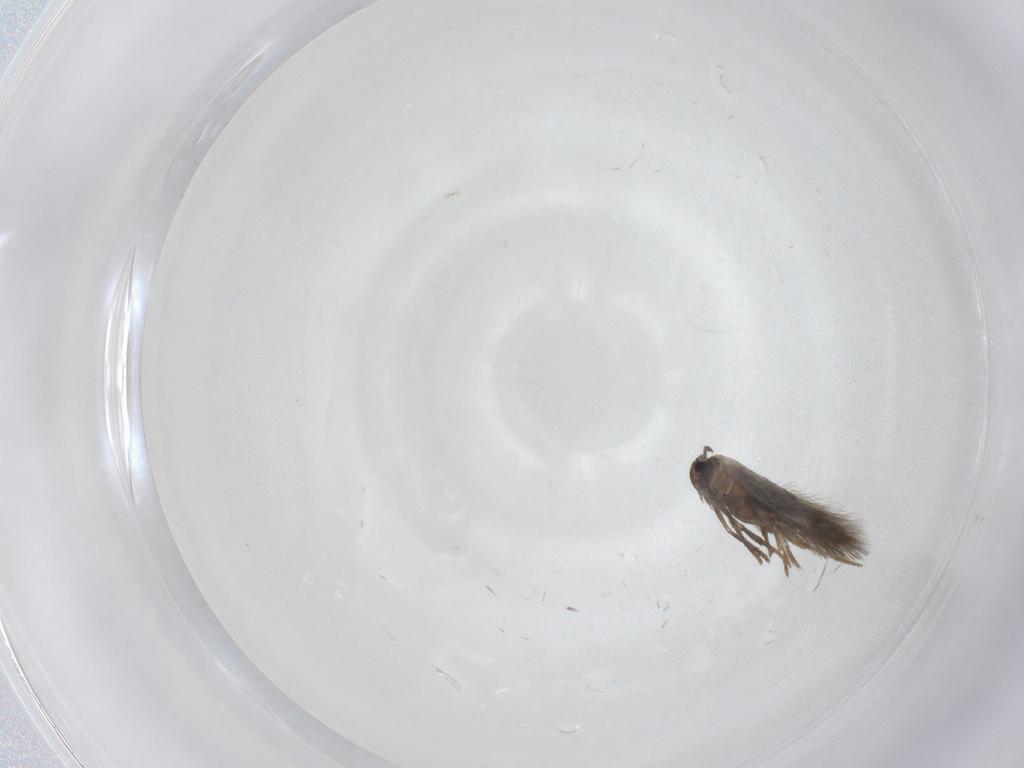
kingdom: Animalia
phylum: Arthropoda
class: Insecta
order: Lepidoptera
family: Heliozelidae
